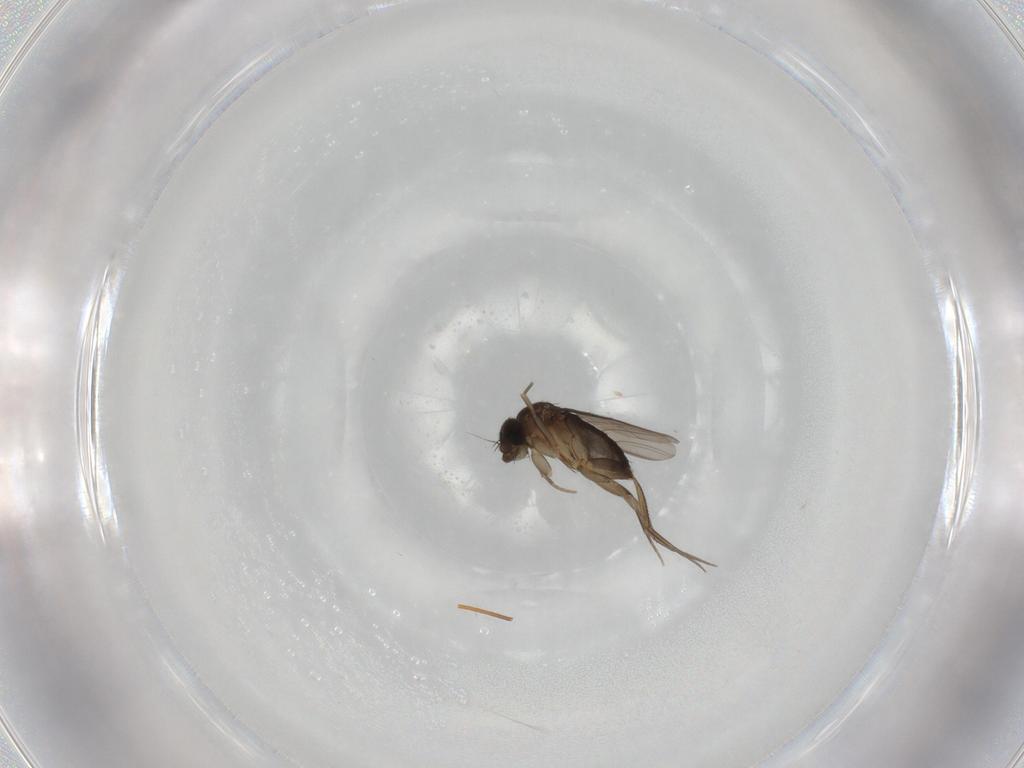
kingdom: Animalia
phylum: Arthropoda
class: Insecta
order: Diptera
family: Phoridae
